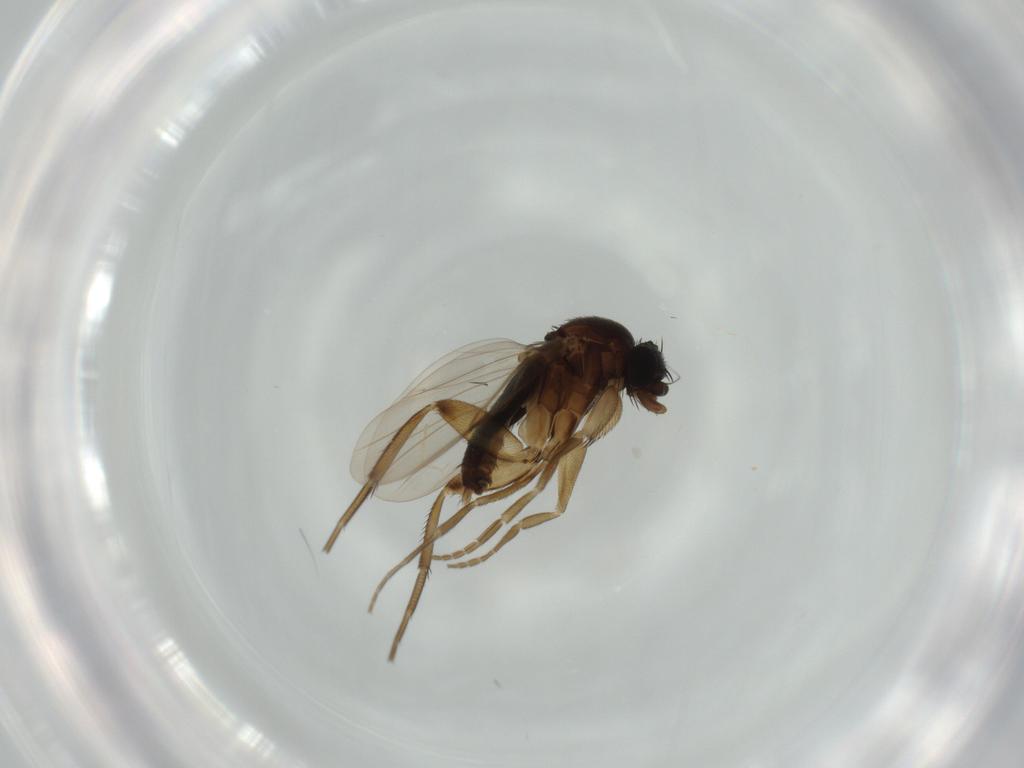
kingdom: Animalia
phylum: Arthropoda
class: Insecta
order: Diptera
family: Phoridae
